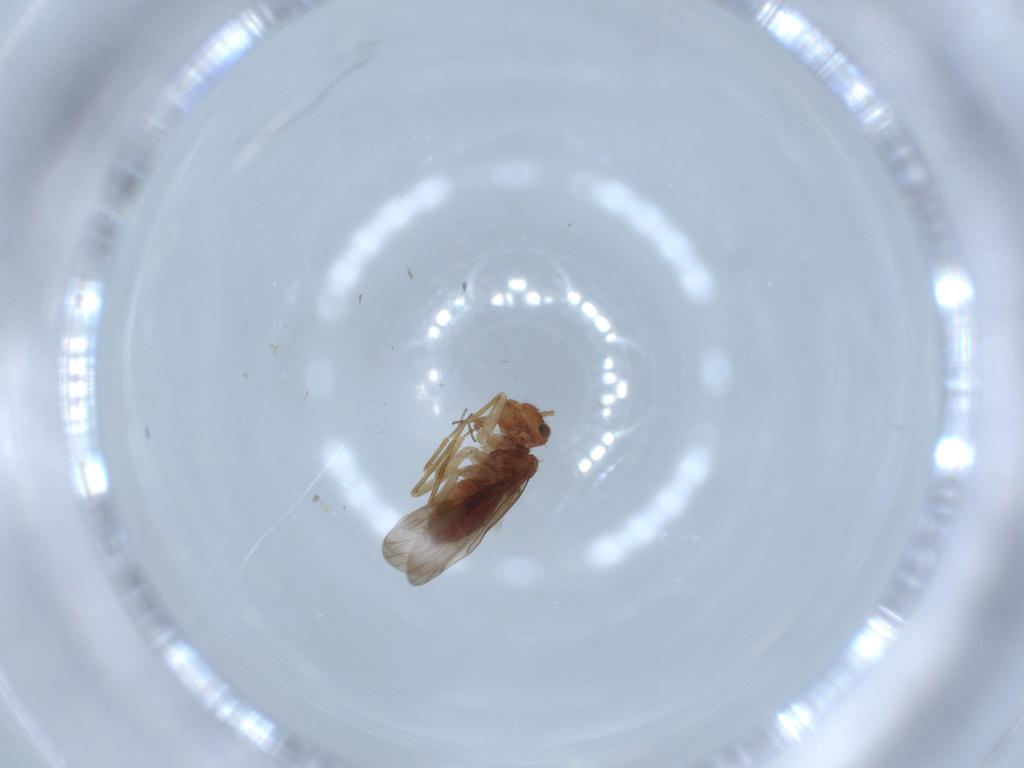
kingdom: Animalia
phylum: Arthropoda
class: Insecta
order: Psocodea
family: Ectopsocidae
